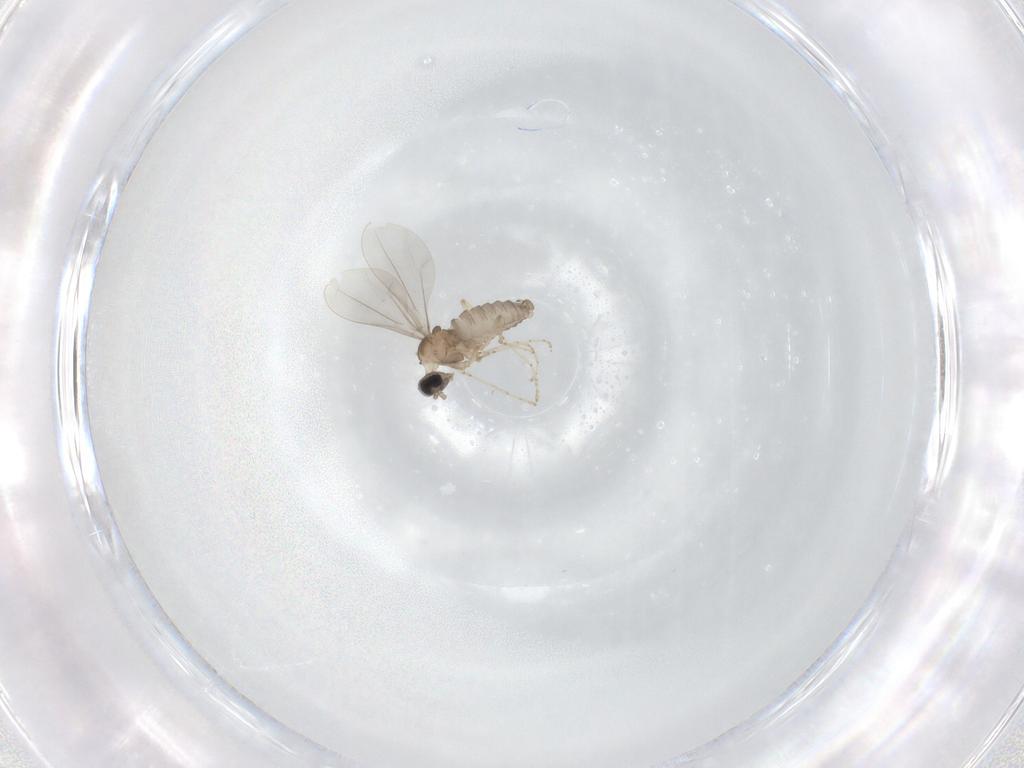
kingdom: Animalia
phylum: Arthropoda
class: Insecta
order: Diptera
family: Cecidomyiidae
